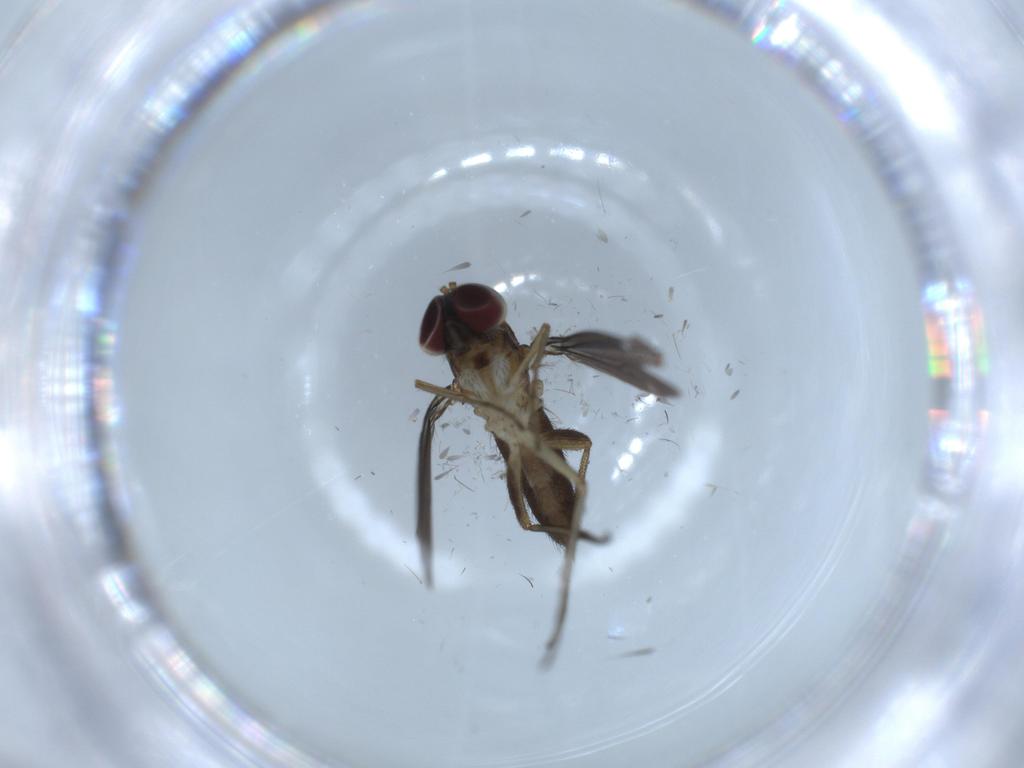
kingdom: Animalia
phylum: Arthropoda
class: Insecta
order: Diptera
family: Dolichopodidae
